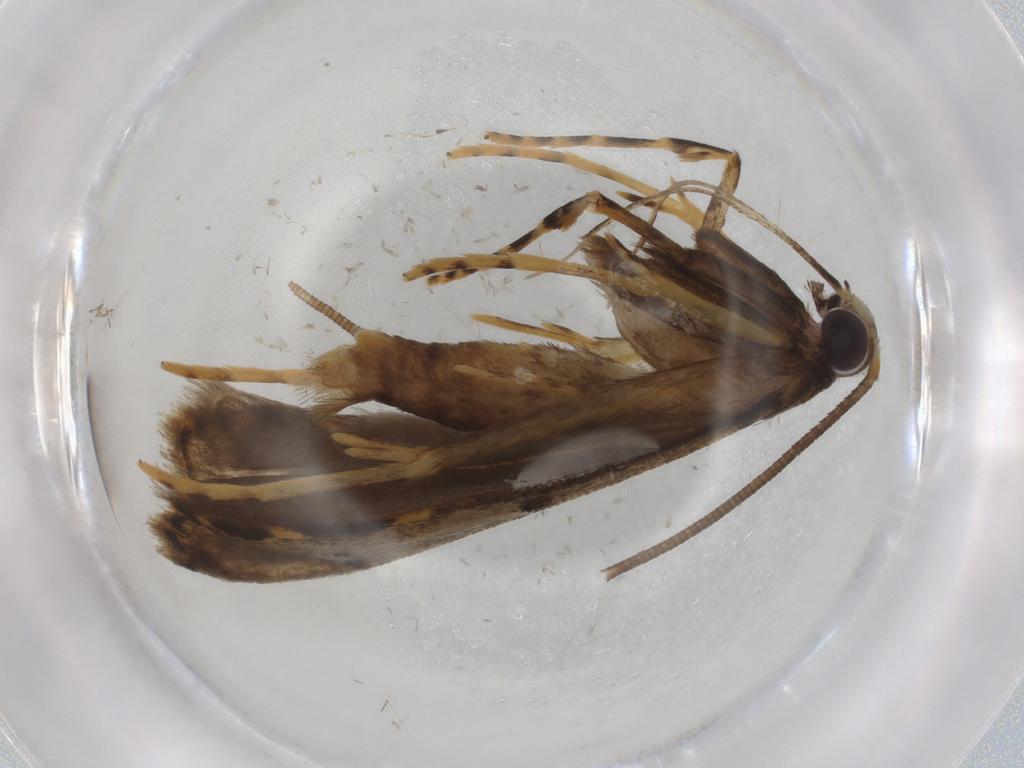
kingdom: Animalia
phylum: Arthropoda
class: Insecta
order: Lepidoptera
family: Cosmopterigidae
